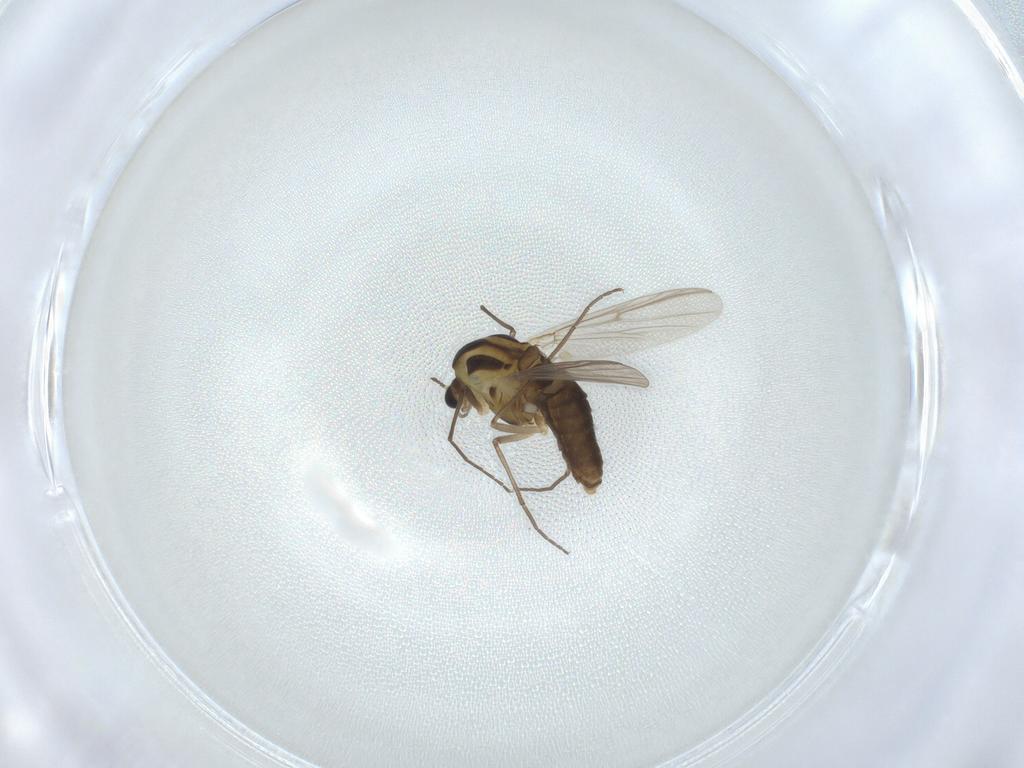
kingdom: Animalia
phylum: Arthropoda
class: Insecta
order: Diptera
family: Chironomidae
